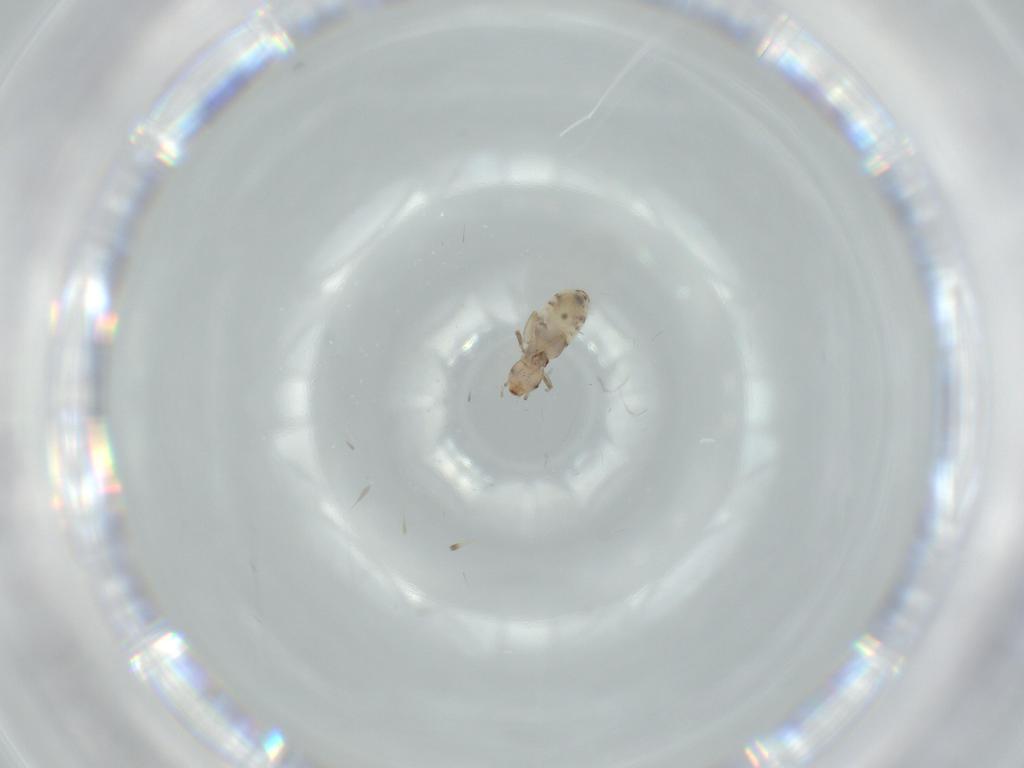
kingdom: Animalia
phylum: Arthropoda
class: Insecta
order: Psocodea
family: Liposcelididae
